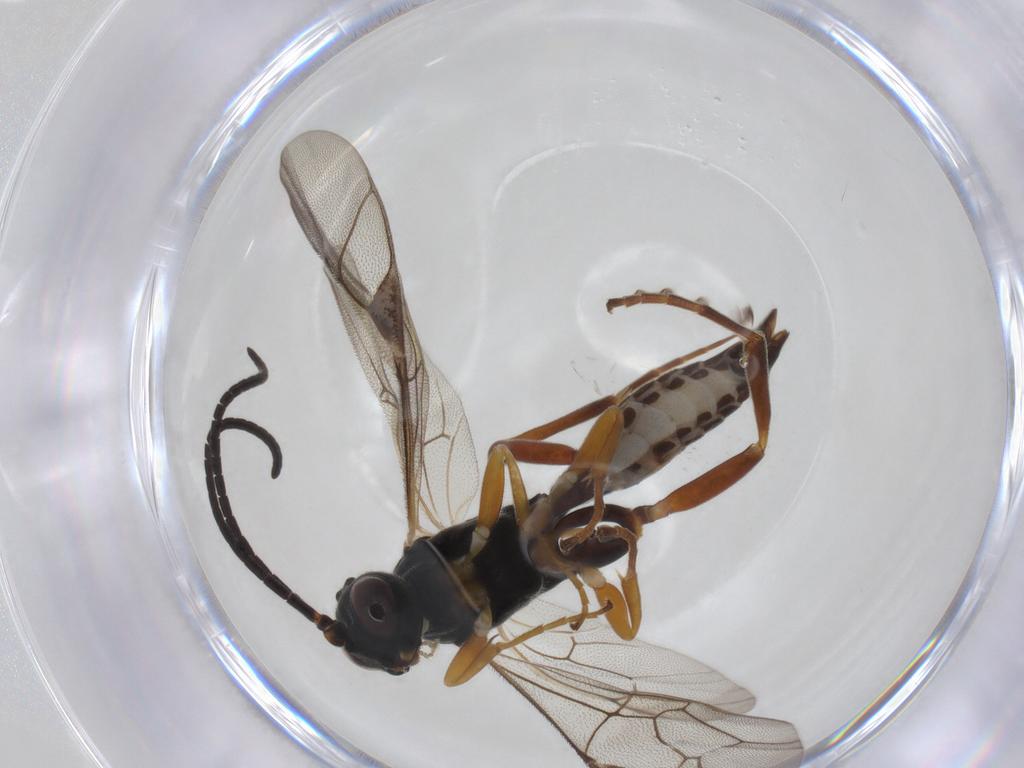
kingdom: Animalia
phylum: Arthropoda
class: Insecta
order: Hymenoptera
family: Ichneumonidae
